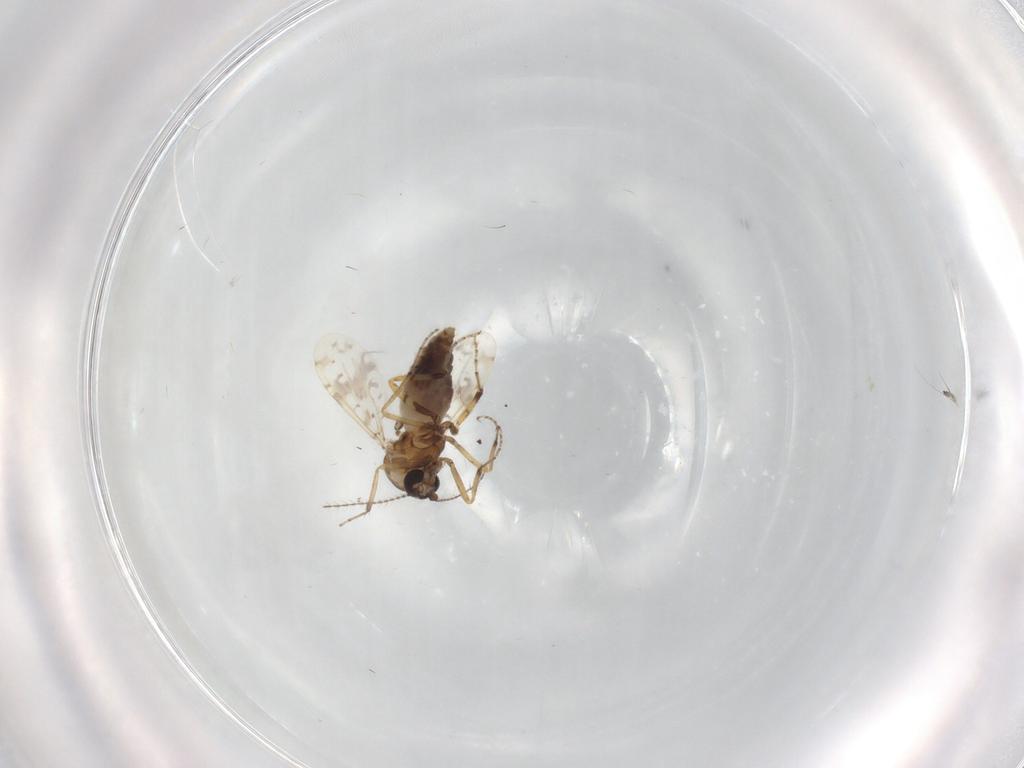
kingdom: Animalia
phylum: Arthropoda
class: Insecta
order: Diptera
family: Ceratopogonidae
